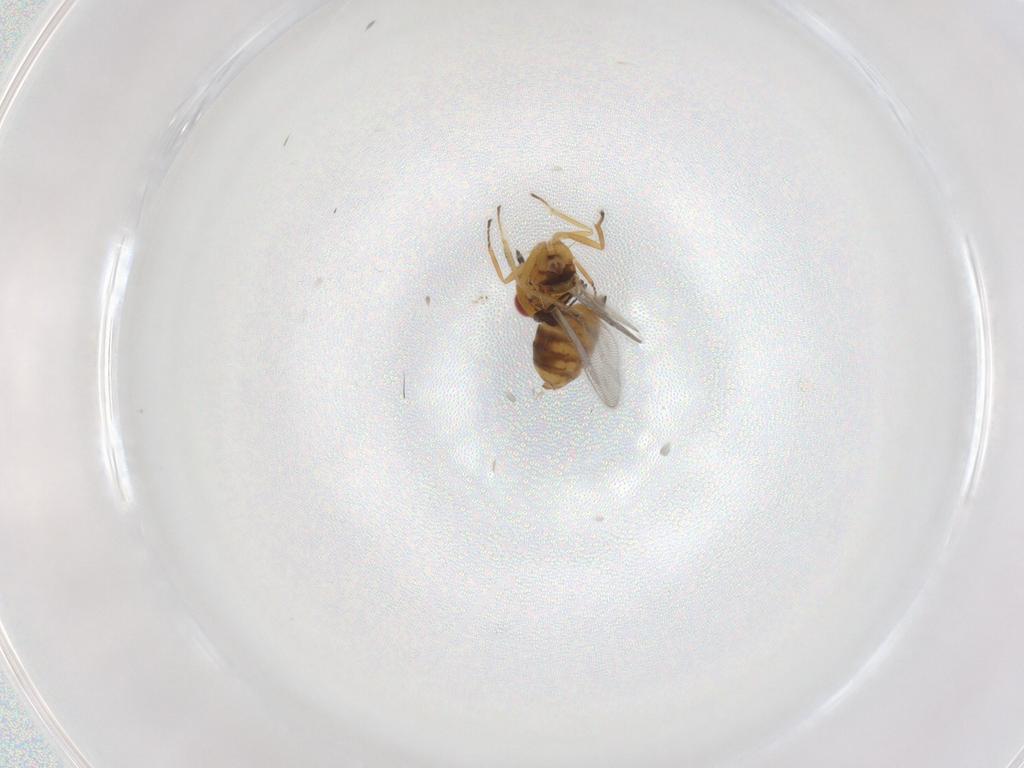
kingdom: Animalia
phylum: Arthropoda
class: Insecta
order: Hymenoptera
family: Eulophidae
